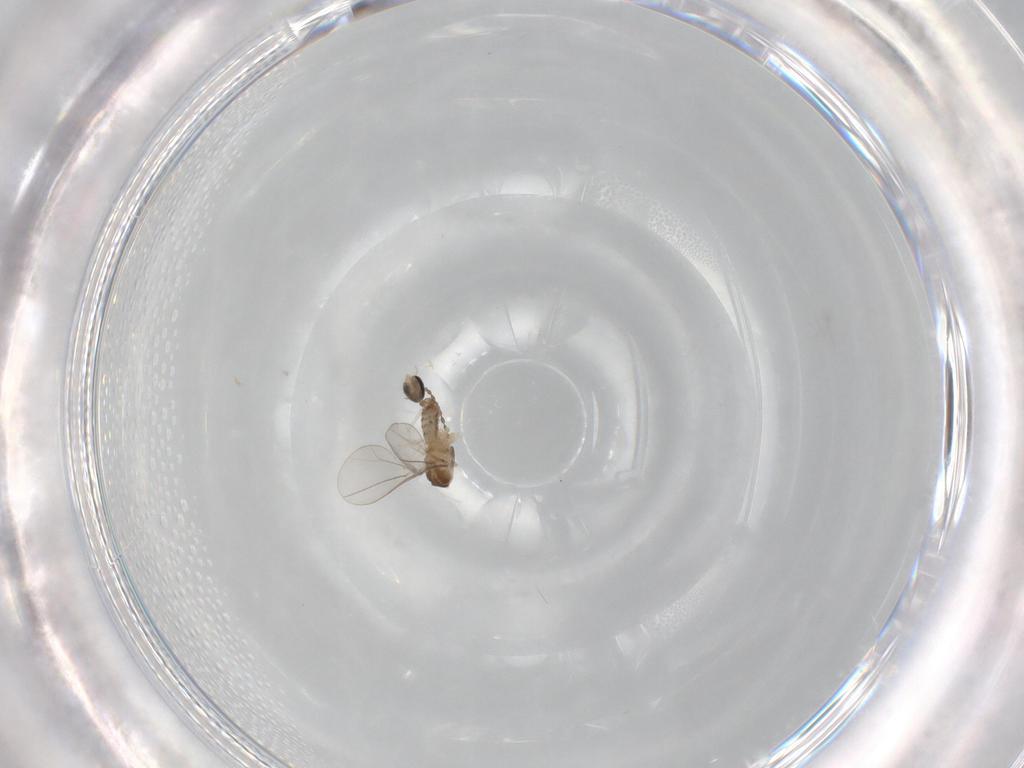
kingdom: Animalia
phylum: Arthropoda
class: Insecta
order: Diptera
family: Cecidomyiidae
